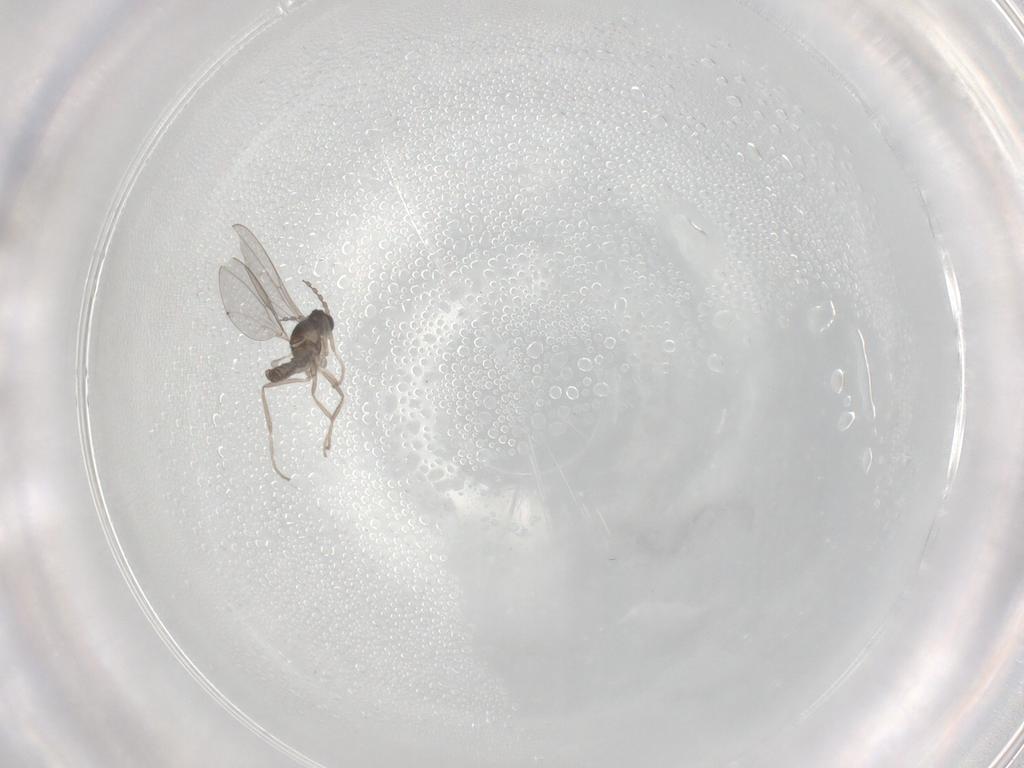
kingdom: Animalia
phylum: Arthropoda
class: Insecta
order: Diptera
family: Cecidomyiidae
